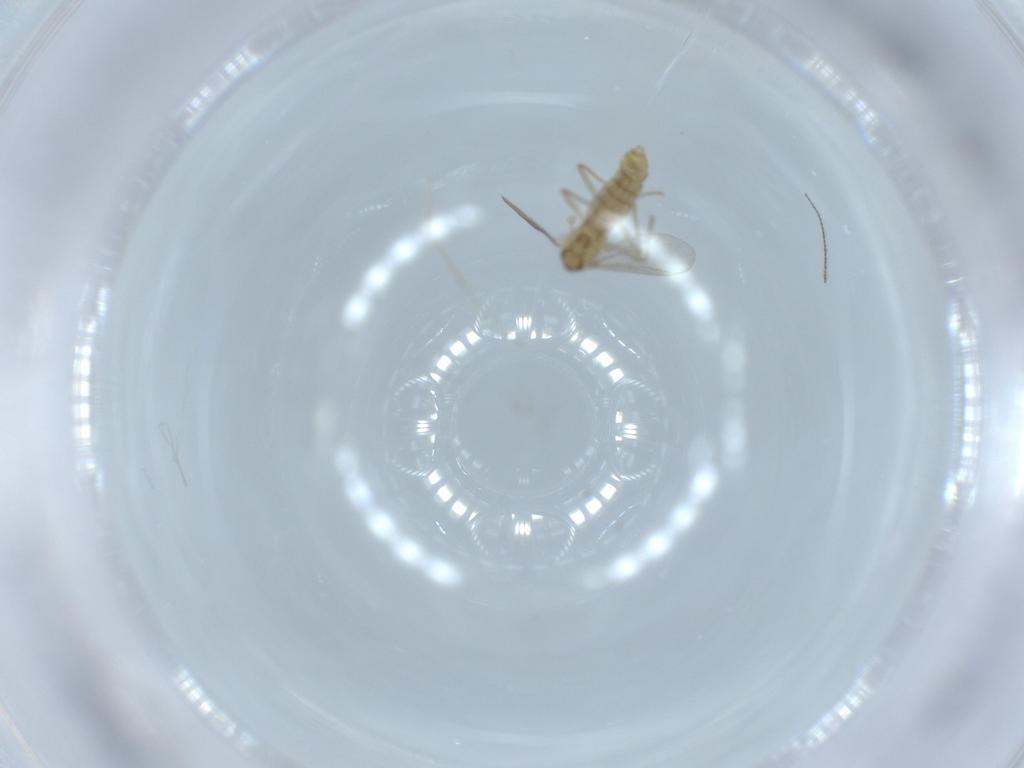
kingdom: Animalia
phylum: Arthropoda
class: Insecta
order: Diptera
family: Chironomidae
